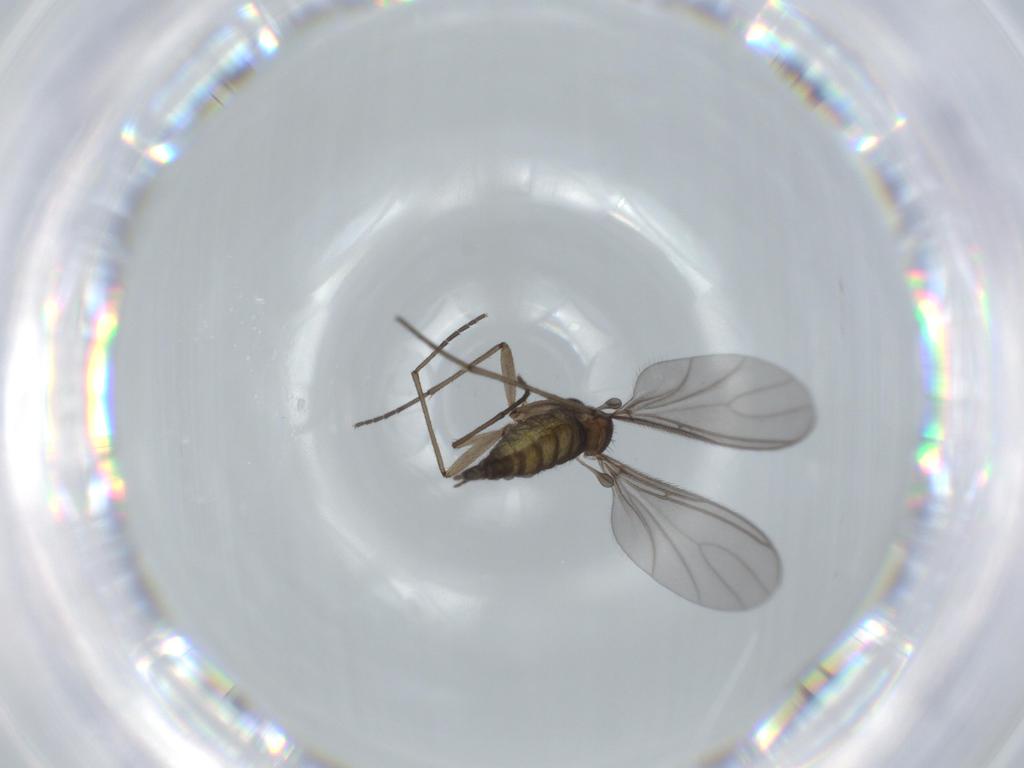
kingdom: Animalia
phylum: Arthropoda
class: Insecta
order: Diptera
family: Sciaridae
